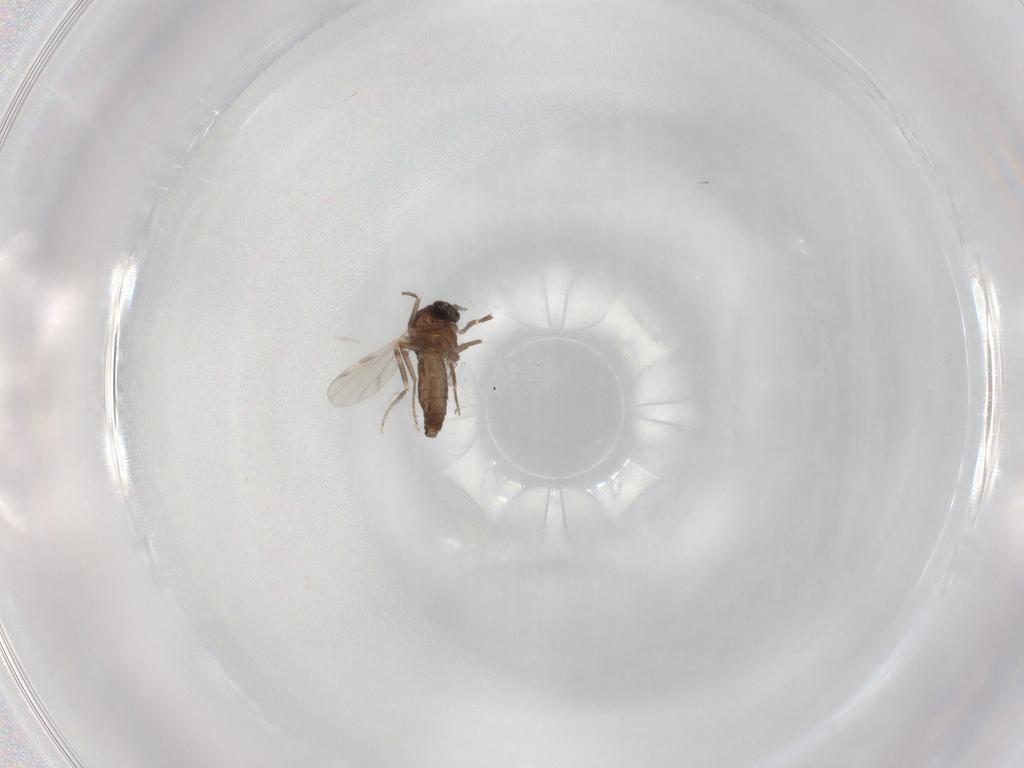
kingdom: Animalia
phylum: Arthropoda
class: Insecta
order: Diptera
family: Ceratopogonidae
